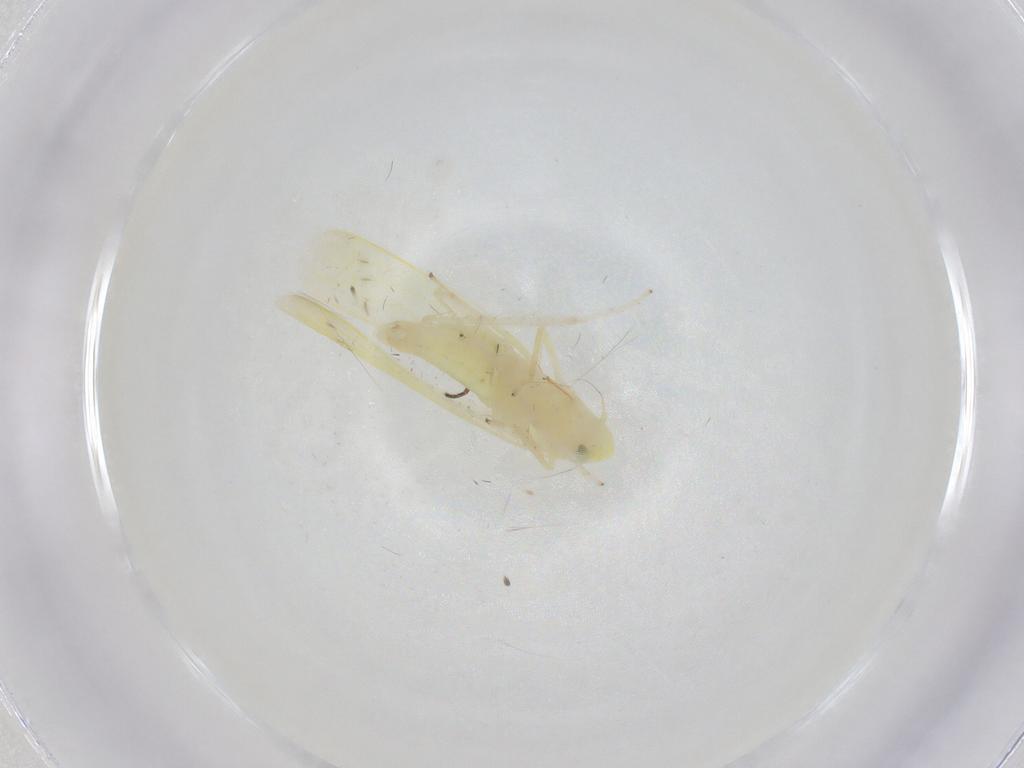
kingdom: Animalia
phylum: Arthropoda
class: Insecta
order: Hemiptera
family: Cicadellidae
